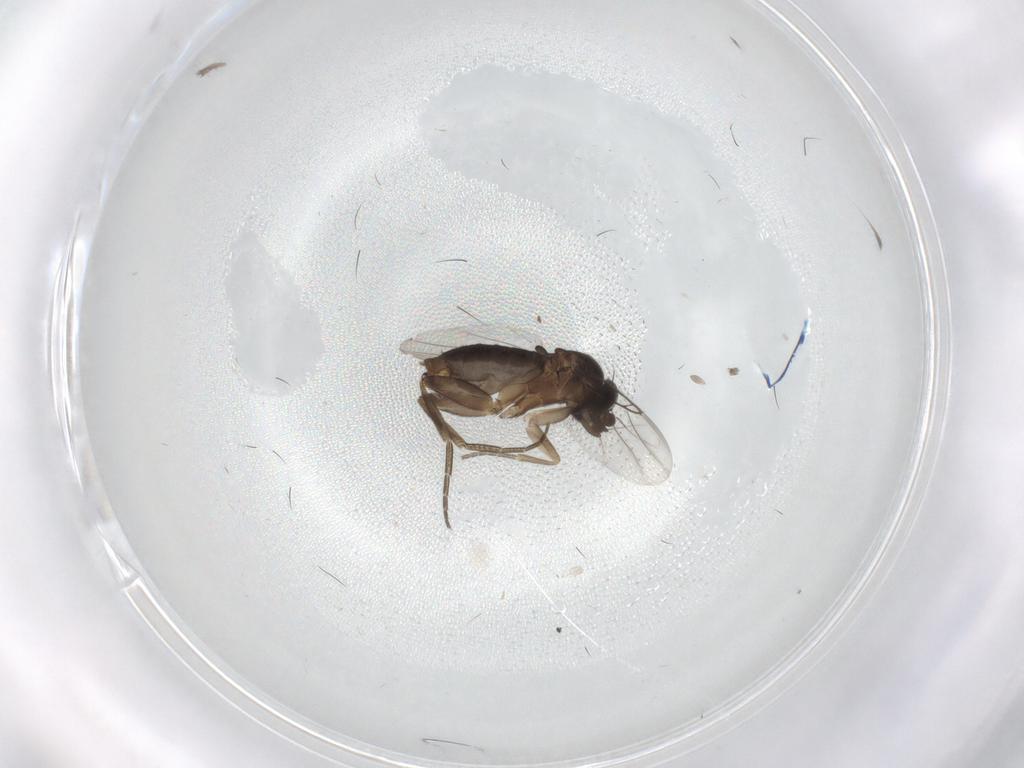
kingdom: Animalia
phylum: Arthropoda
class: Insecta
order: Diptera
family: Phoridae
